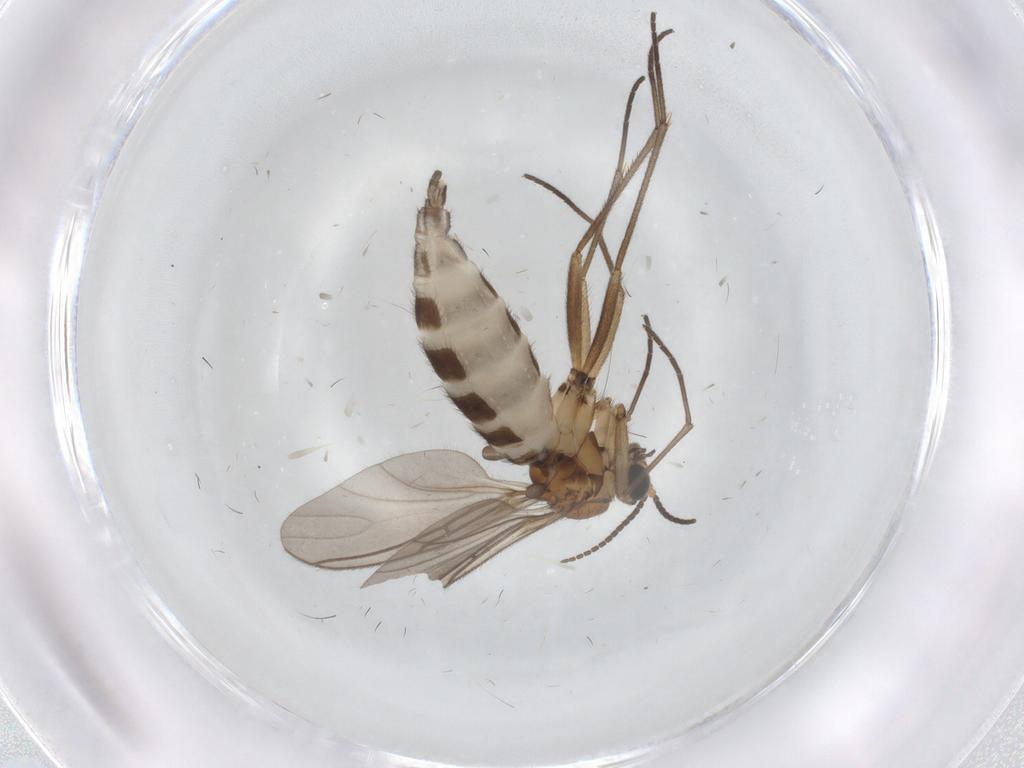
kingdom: Animalia
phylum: Arthropoda
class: Insecta
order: Diptera
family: Sciaridae
